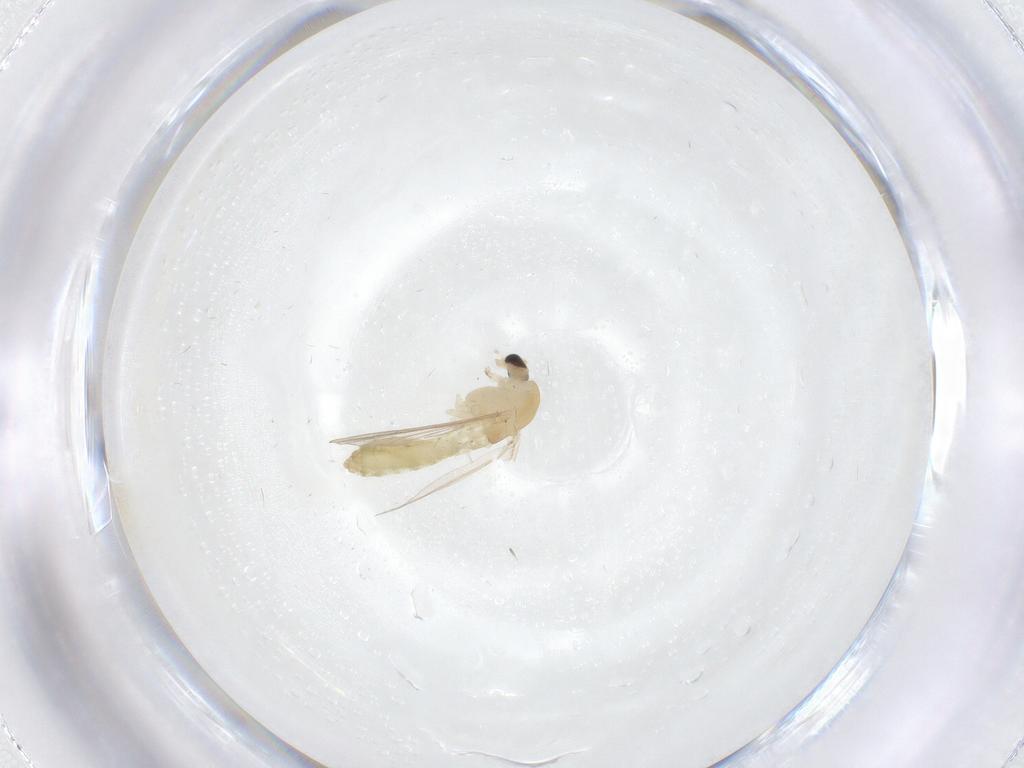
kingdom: Animalia
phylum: Arthropoda
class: Insecta
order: Diptera
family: Chironomidae
